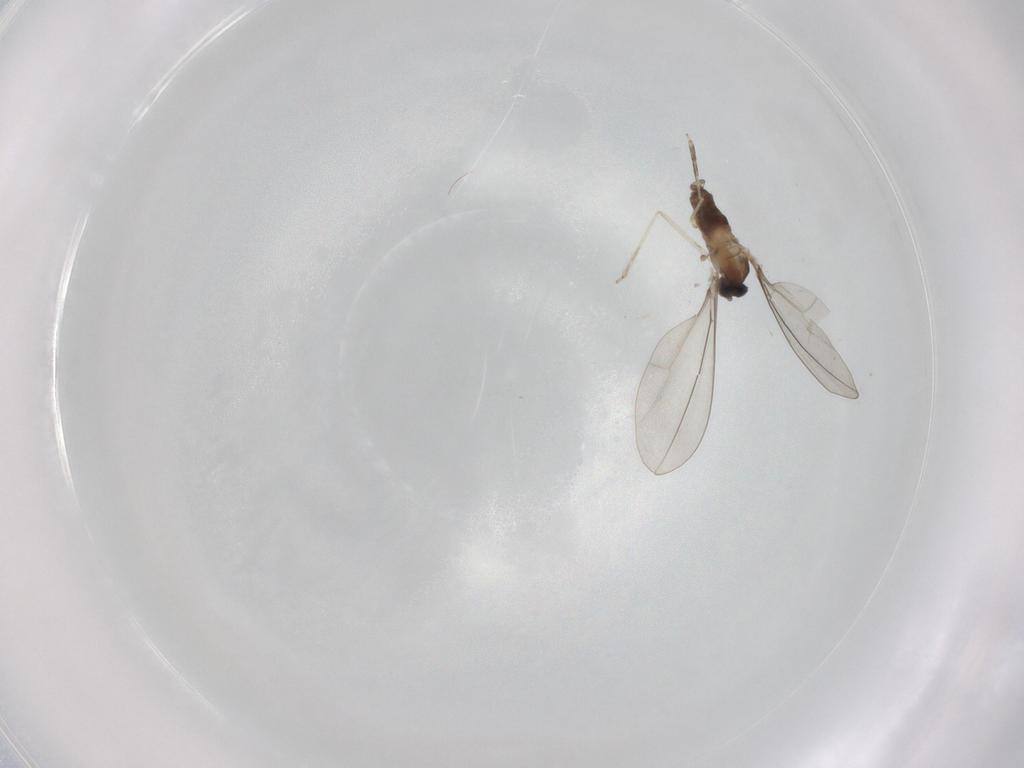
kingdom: Animalia
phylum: Arthropoda
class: Insecta
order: Diptera
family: Cecidomyiidae
